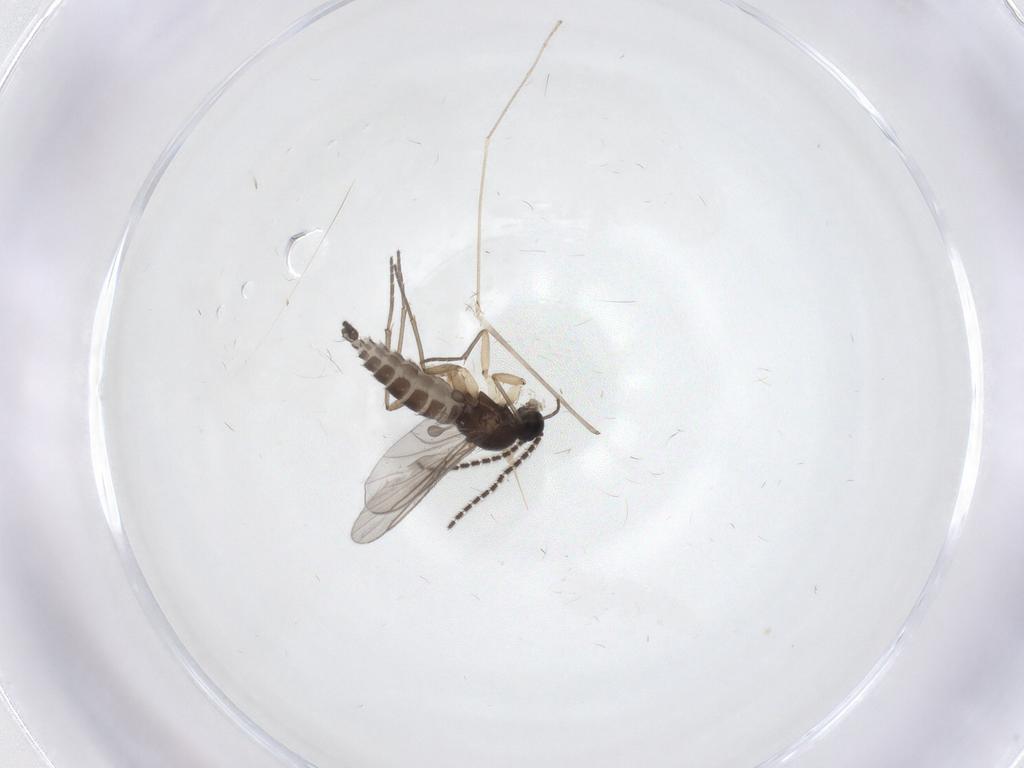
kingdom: Animalia
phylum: Arthropoda
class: Insecta
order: Diptera
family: Limoniidae
